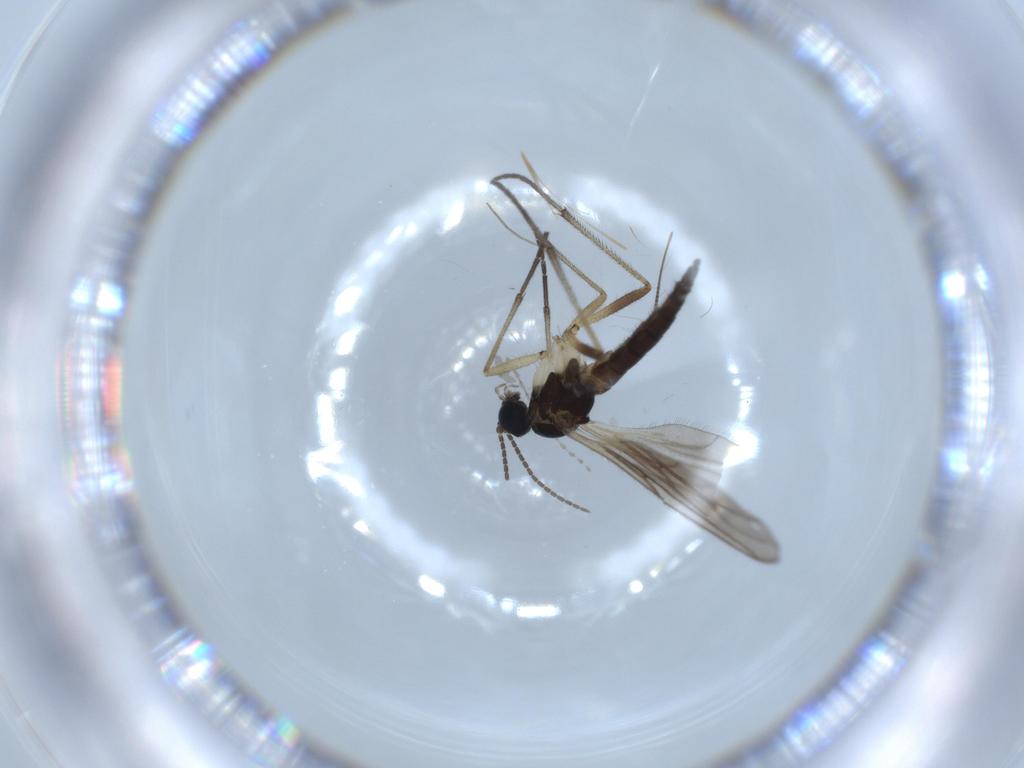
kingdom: Animalia
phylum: Arthropoda
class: Insecta
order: Diptera
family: Sciaridae
